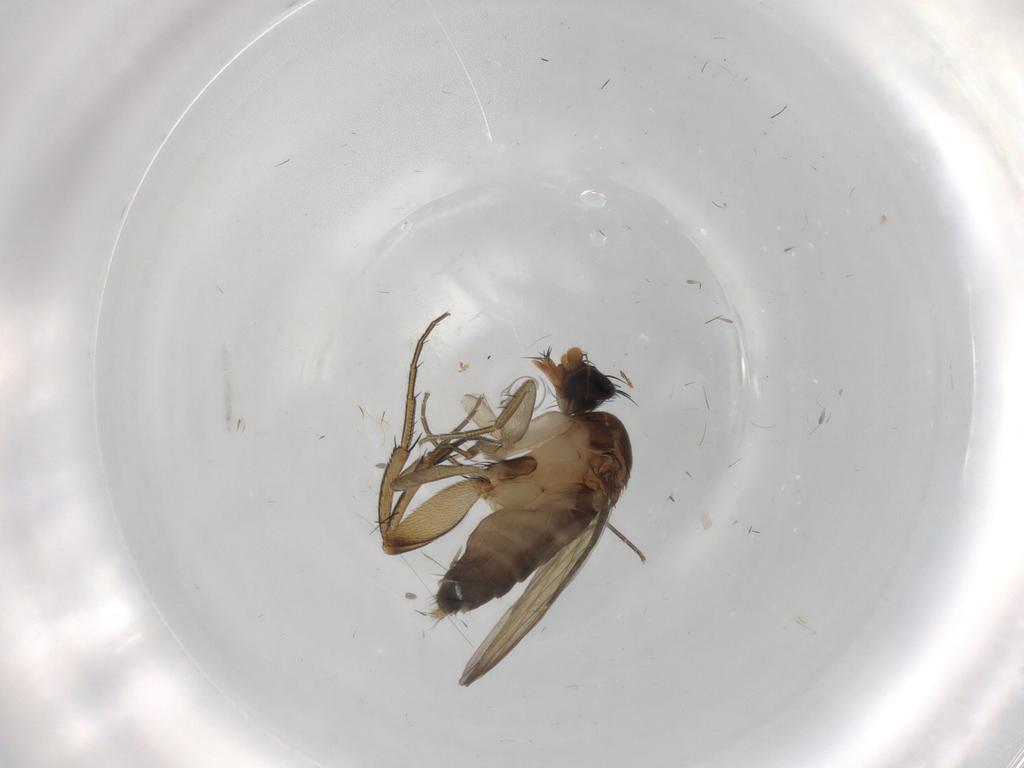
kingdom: Animalia
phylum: Arthropoda
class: Insecta
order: Diptera
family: Phoridae
